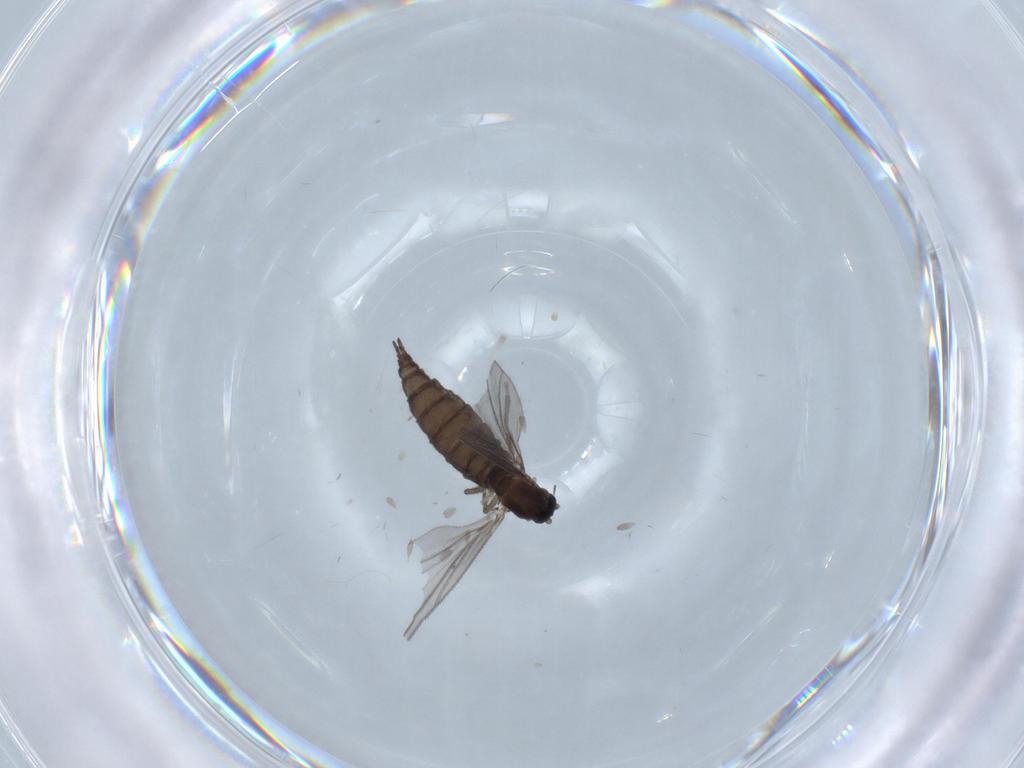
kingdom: Animalia
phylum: Arthropoda
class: Insecta
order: Diptera
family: Sciaridae
